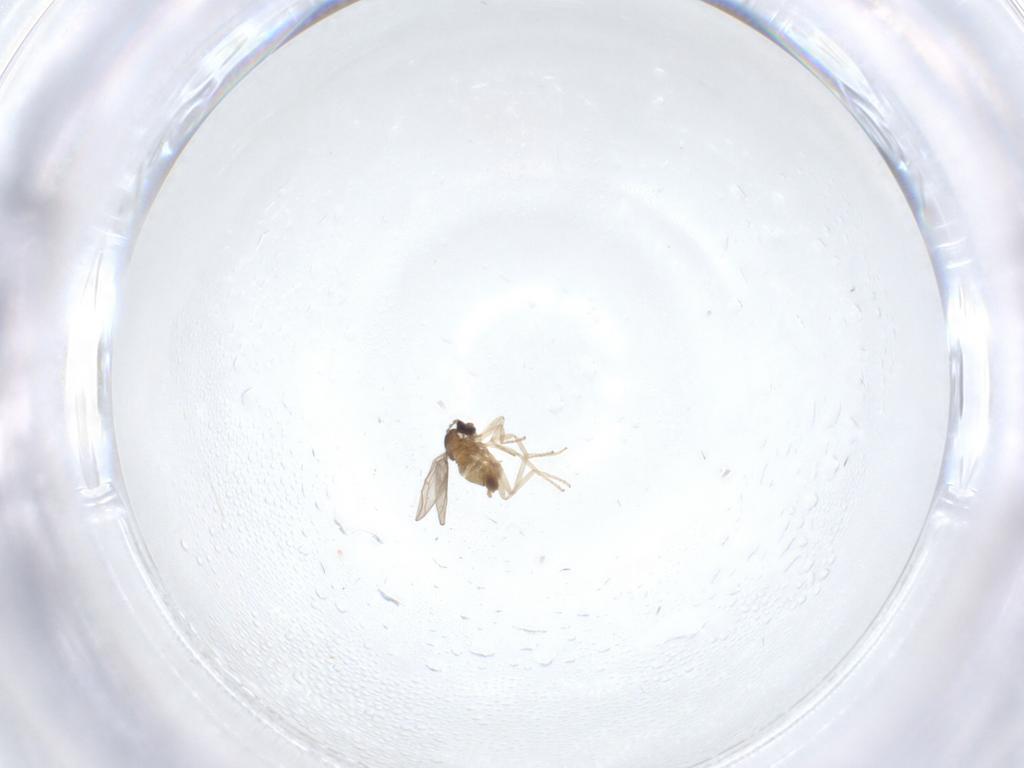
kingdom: Animalia
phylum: Arthropoda
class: Insecta
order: Diptera
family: Cecidomyiidae
